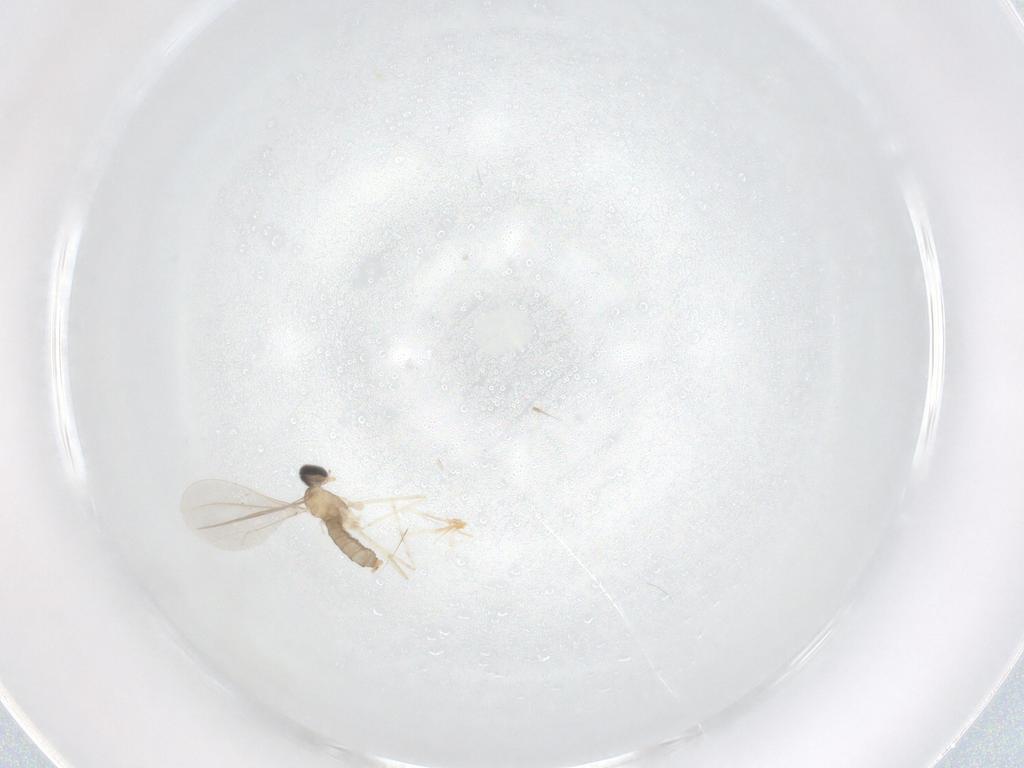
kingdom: Animalia
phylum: Arthropoda
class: Insecta
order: Diptera
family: Cecidomyiidae
